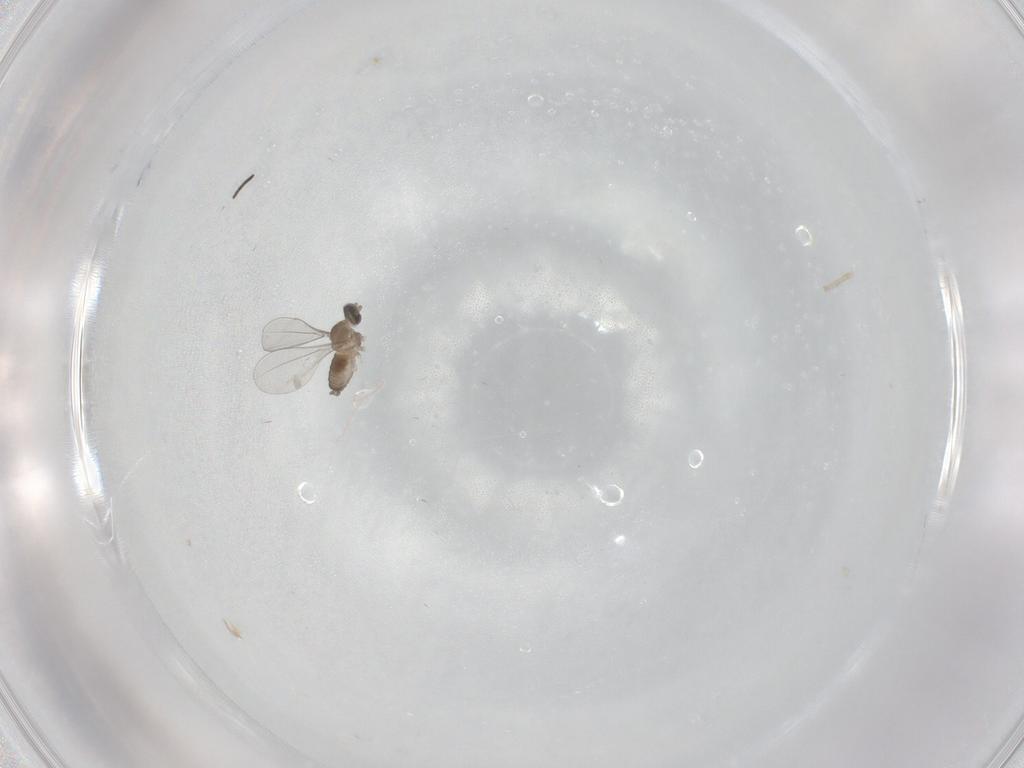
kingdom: Animalia
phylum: Arthropoda
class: Insecta
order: Diptera
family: Cecidomyiidae
